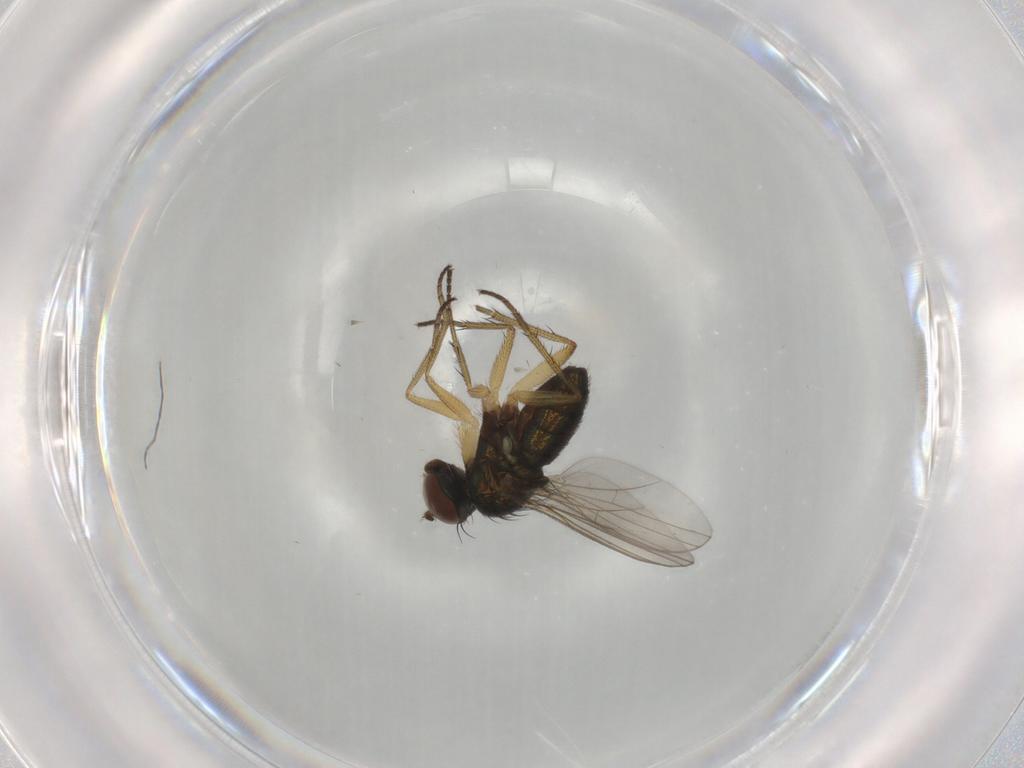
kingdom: Animalia
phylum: Arthropoda
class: Insecta
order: Diptera
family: Dolichopodidae
